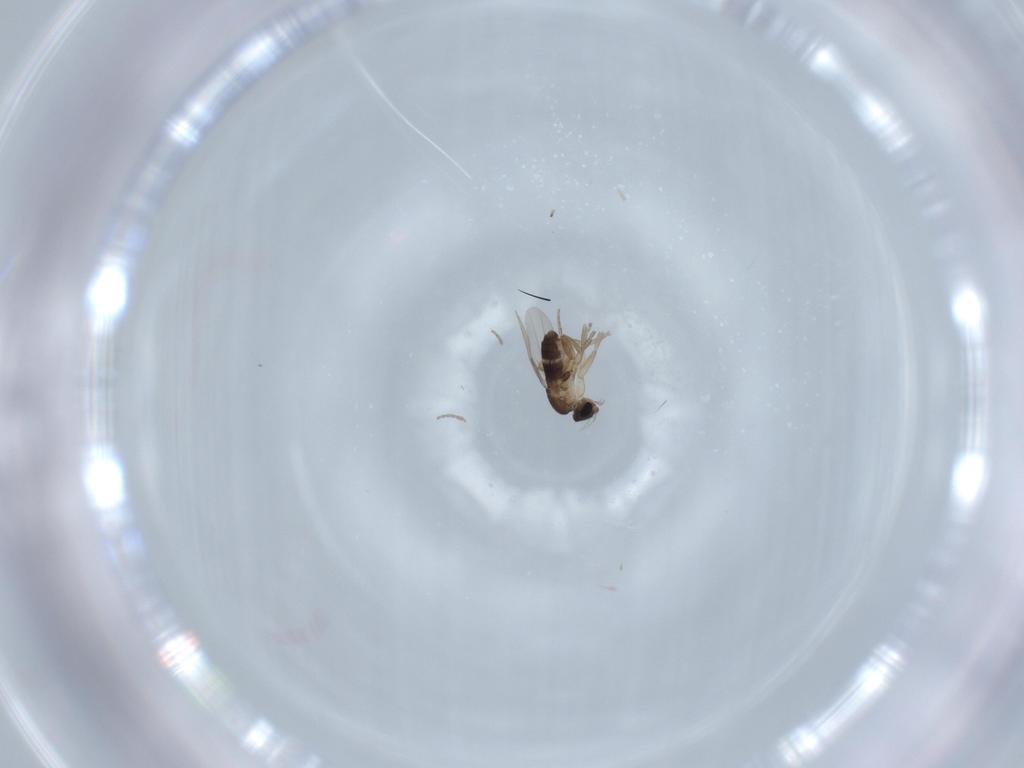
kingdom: Animalia
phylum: Arthropoda
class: Insecta
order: Diptera
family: Phoridae
